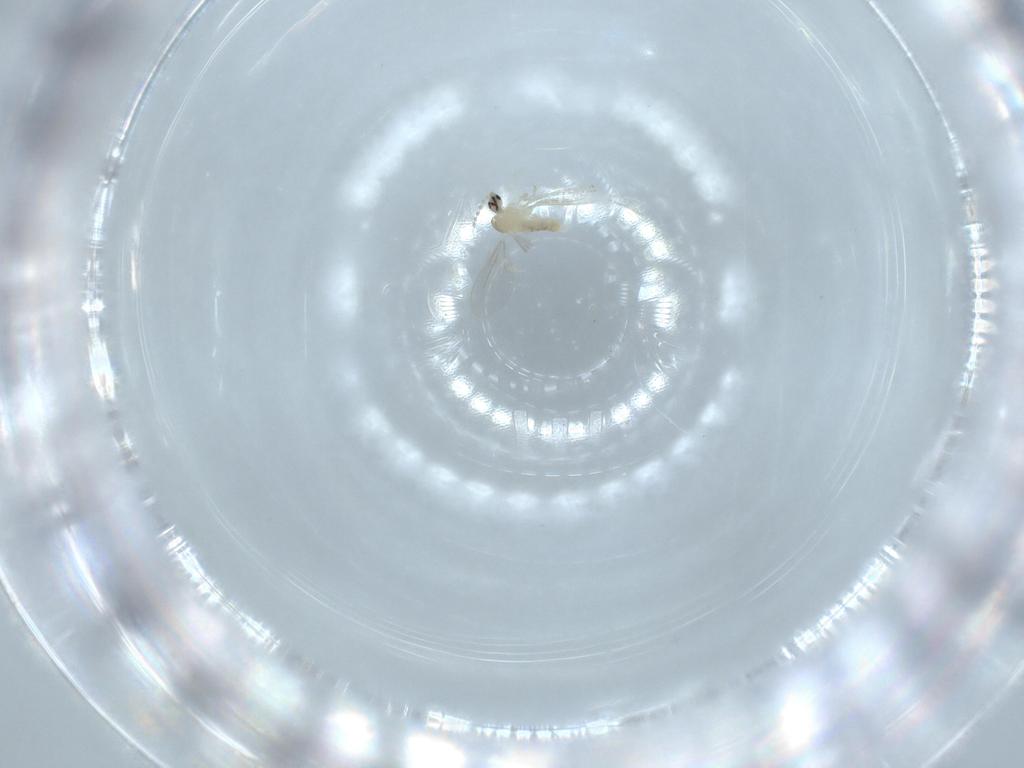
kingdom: Animalia
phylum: Arthropoda
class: Insecta
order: Diptera
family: Cecidomyiidae
